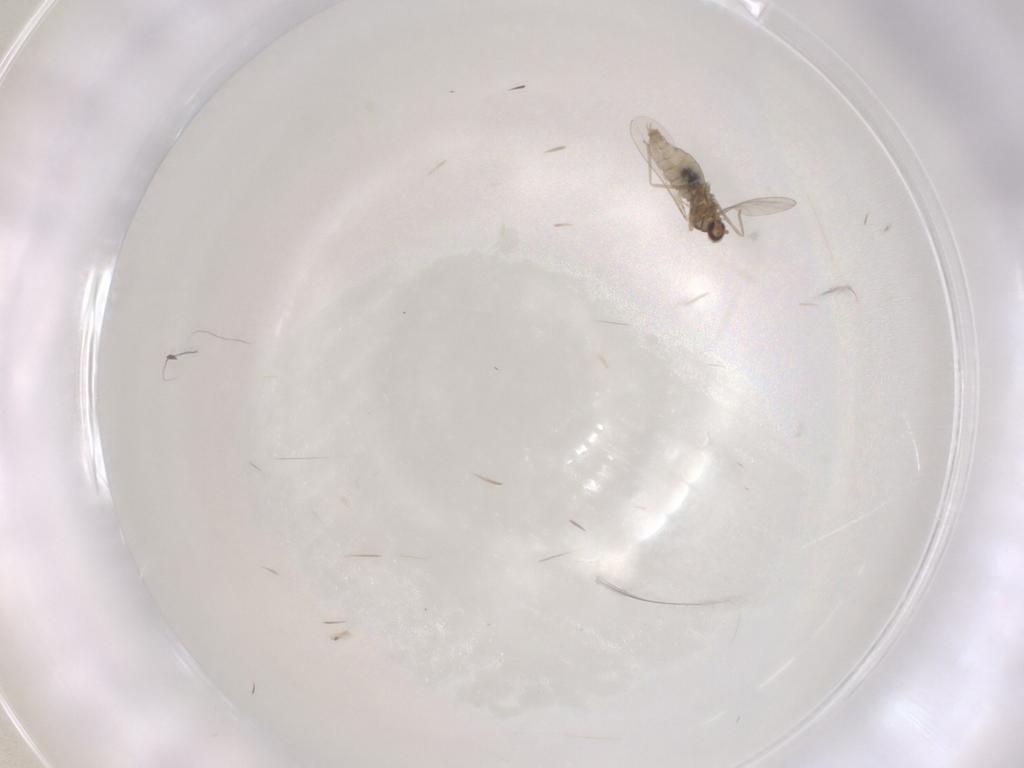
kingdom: Animalia
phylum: Arthropoda
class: Insecta
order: Diptera
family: Cecidomyiidae
